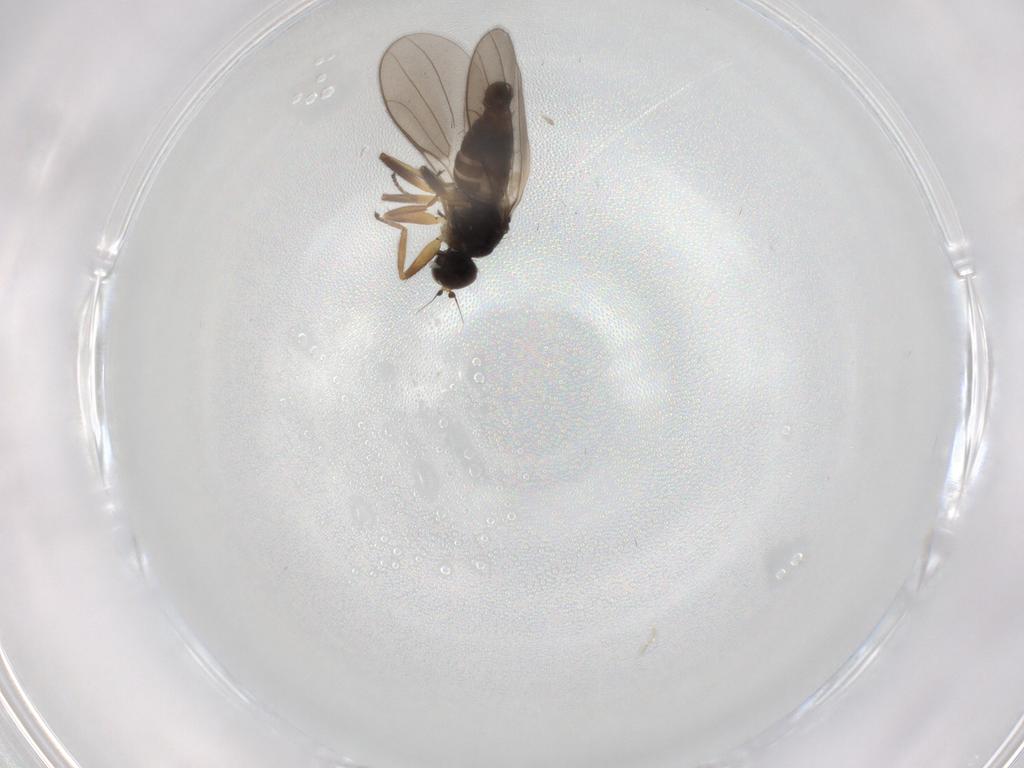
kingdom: Animalia
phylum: Arthropoda
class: Insecta
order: Diptera
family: Hybotidae
